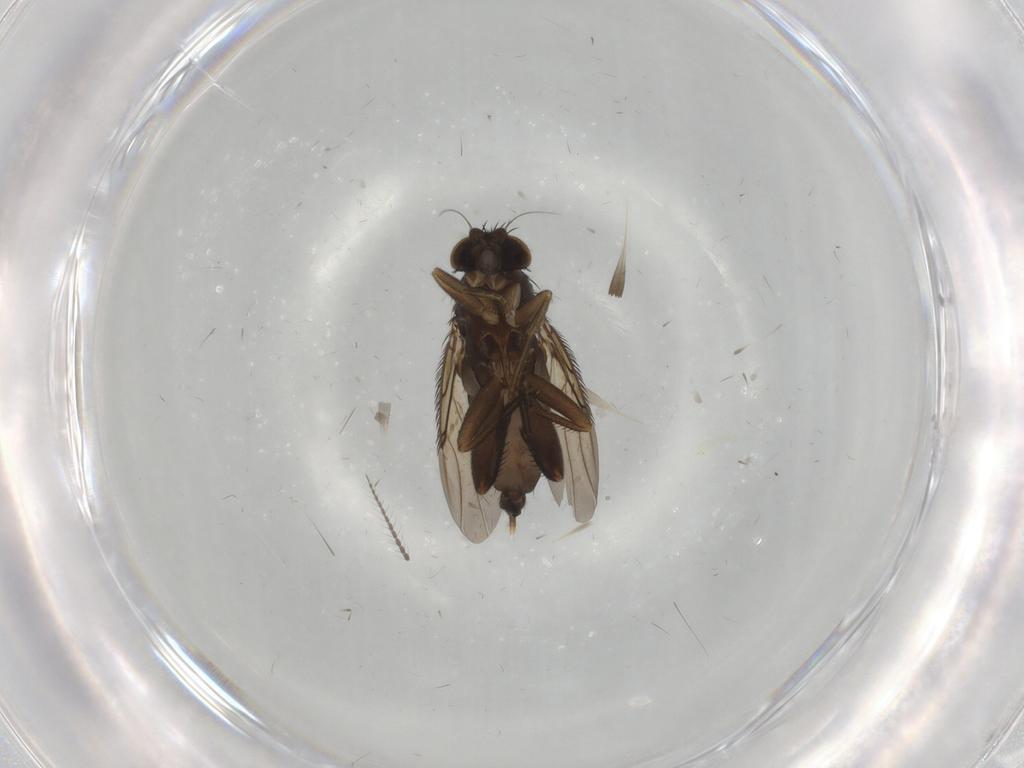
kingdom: Animalia
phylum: Arthropoda
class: Insecta
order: Diptera
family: Phoridae
